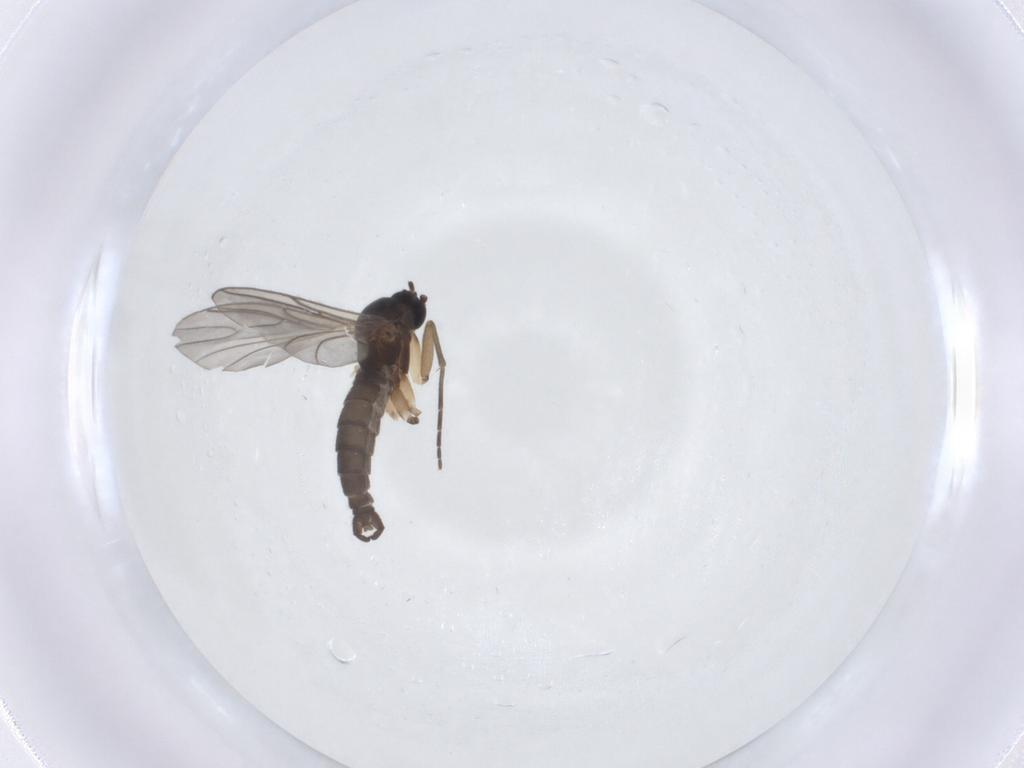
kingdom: Animalia
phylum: Arthropoda
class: Insecta
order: Diptera
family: Sciaridae
